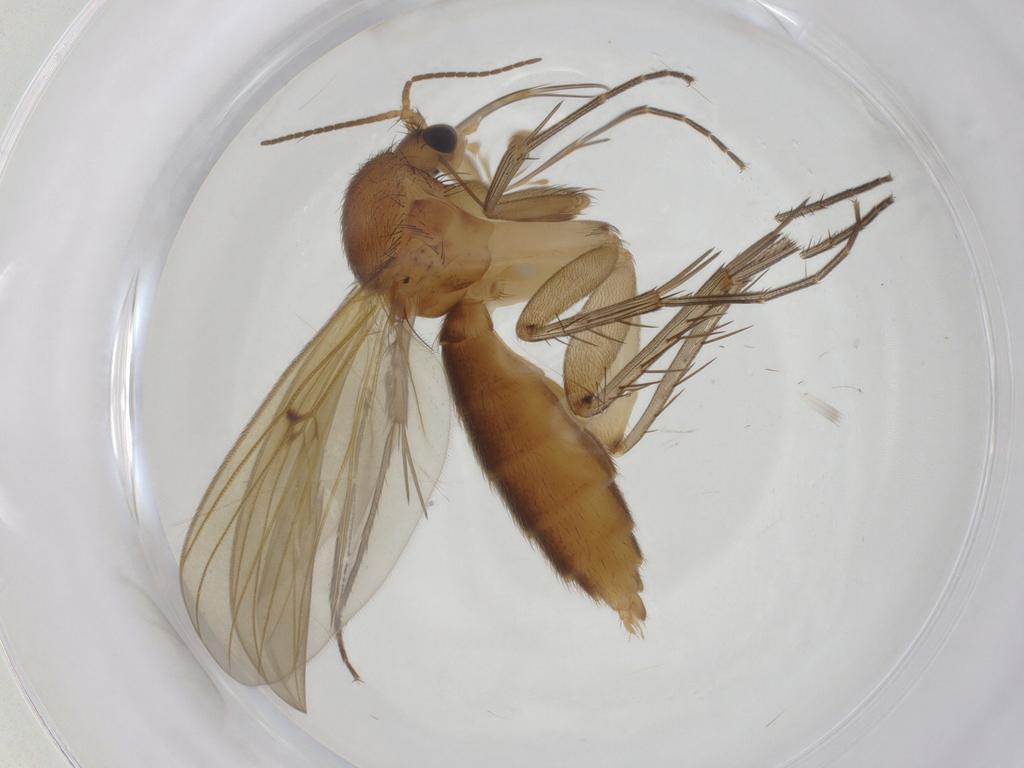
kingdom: Animalia
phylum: Arthropoda
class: Insecta
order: Diptera
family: Mycetophilidae
